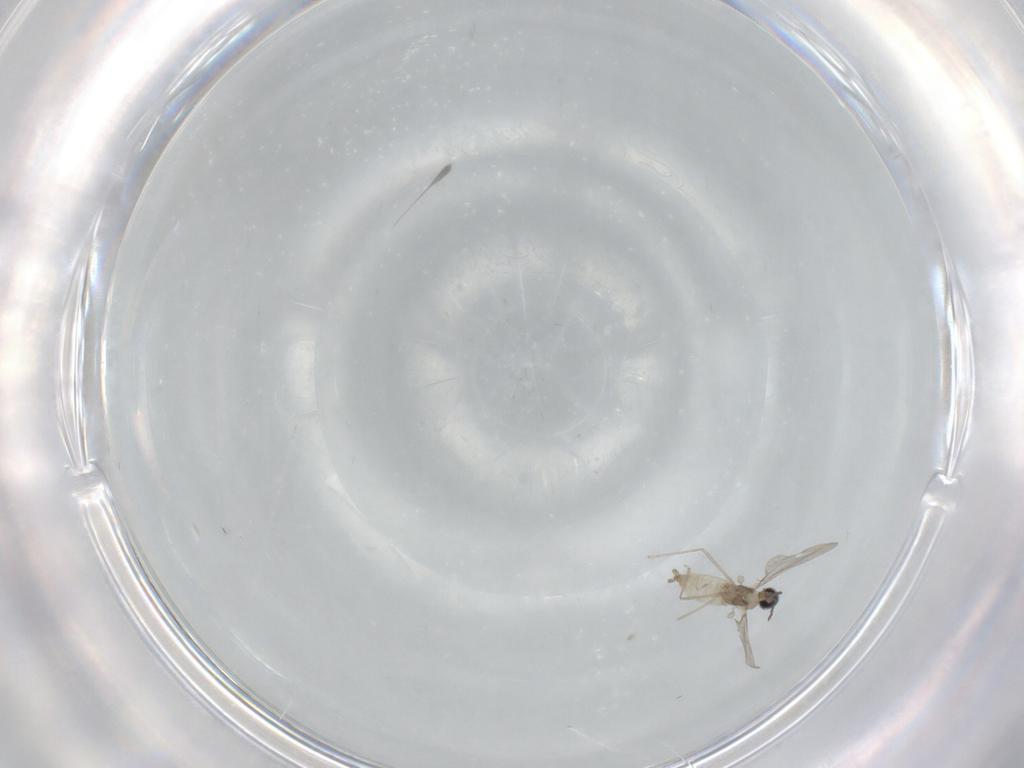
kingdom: Animalia
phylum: Arthropoda
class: Insecta
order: Diptera
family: Cecidomyiidae
